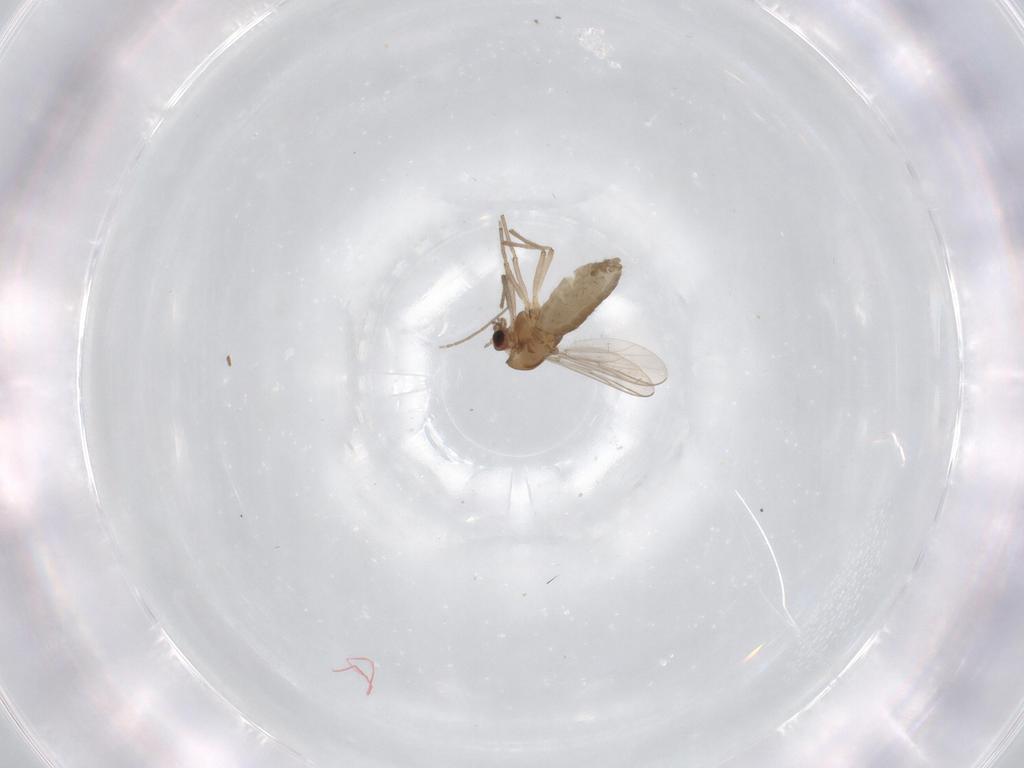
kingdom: Animalia
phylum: Arthropoda
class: Insecta
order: Diptera
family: Chironomidae
